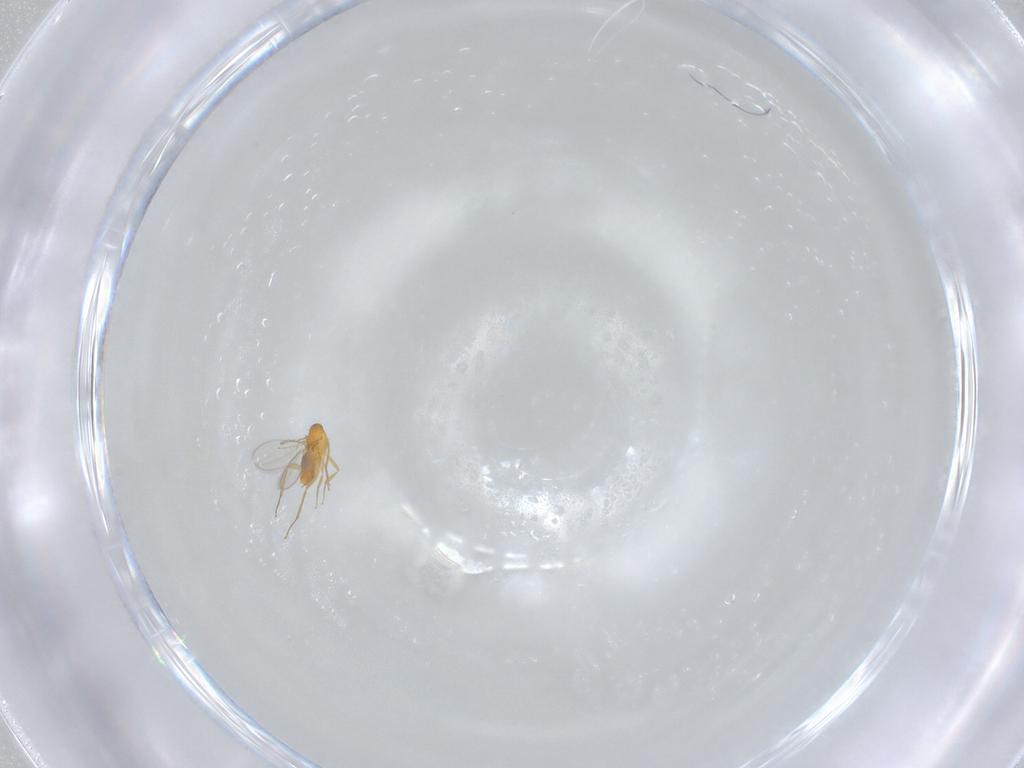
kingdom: Animalia
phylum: Arthropoda
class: Insecta
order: Hymenoptera
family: Aphelinidae
